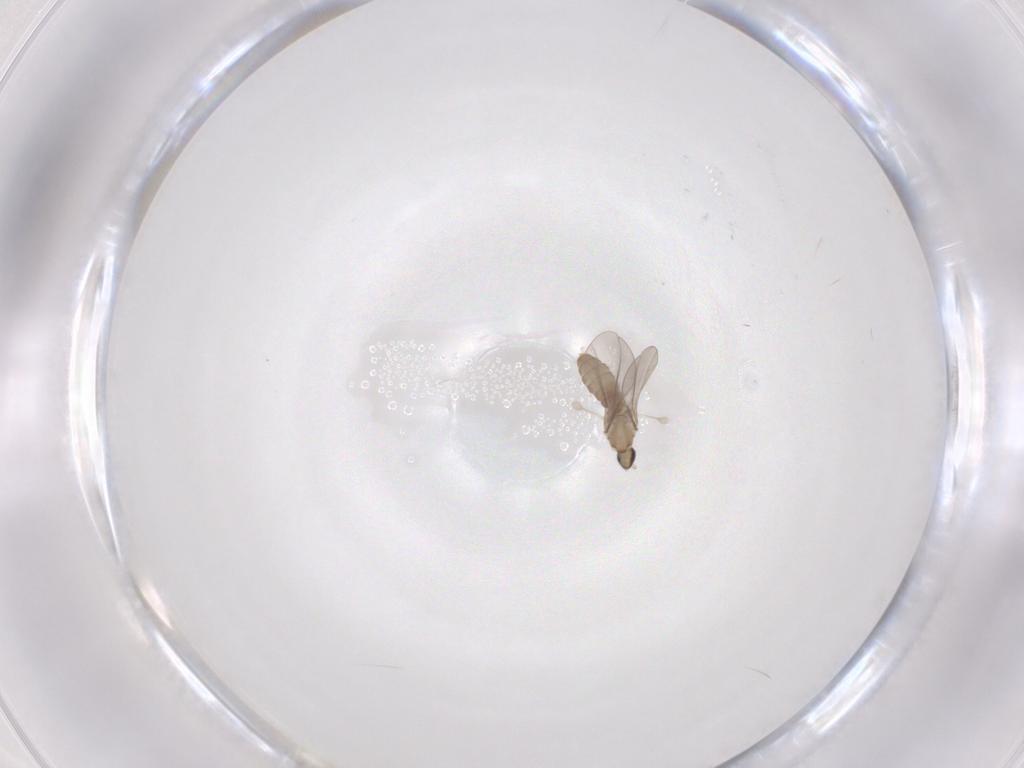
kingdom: Animalia
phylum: Arthropoda
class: Insecta
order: Diptera
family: Cecidomyiidae
